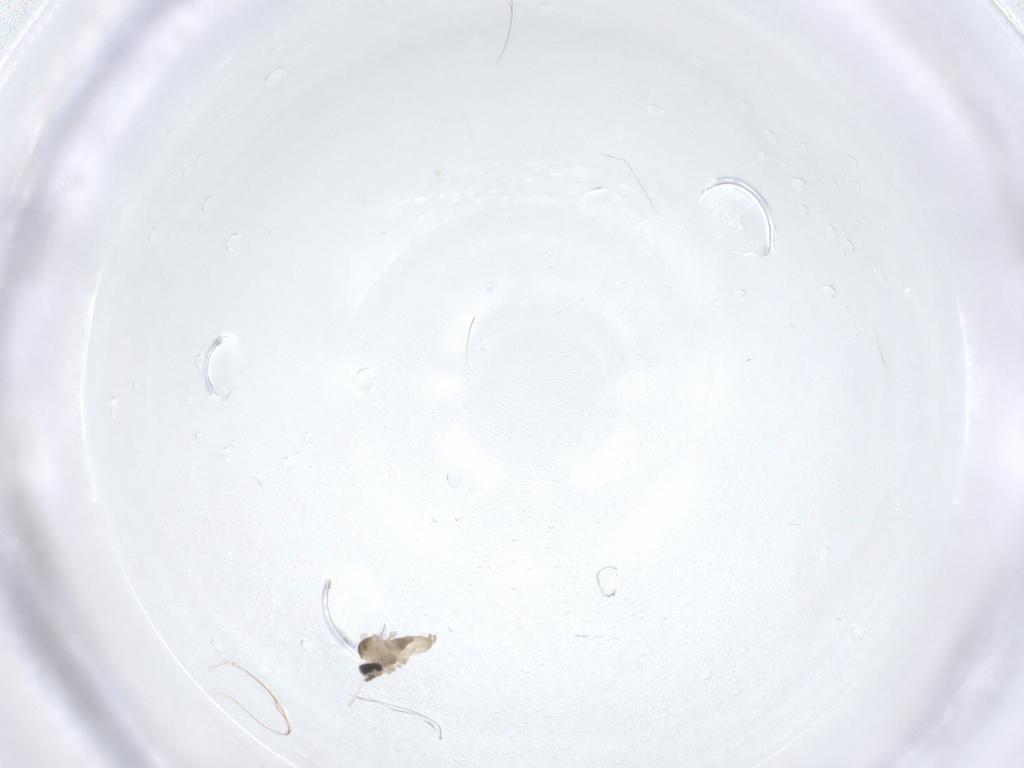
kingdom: Animalia
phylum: Arthropoda
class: Insecta
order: Diptera
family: Cecidomyiidae
